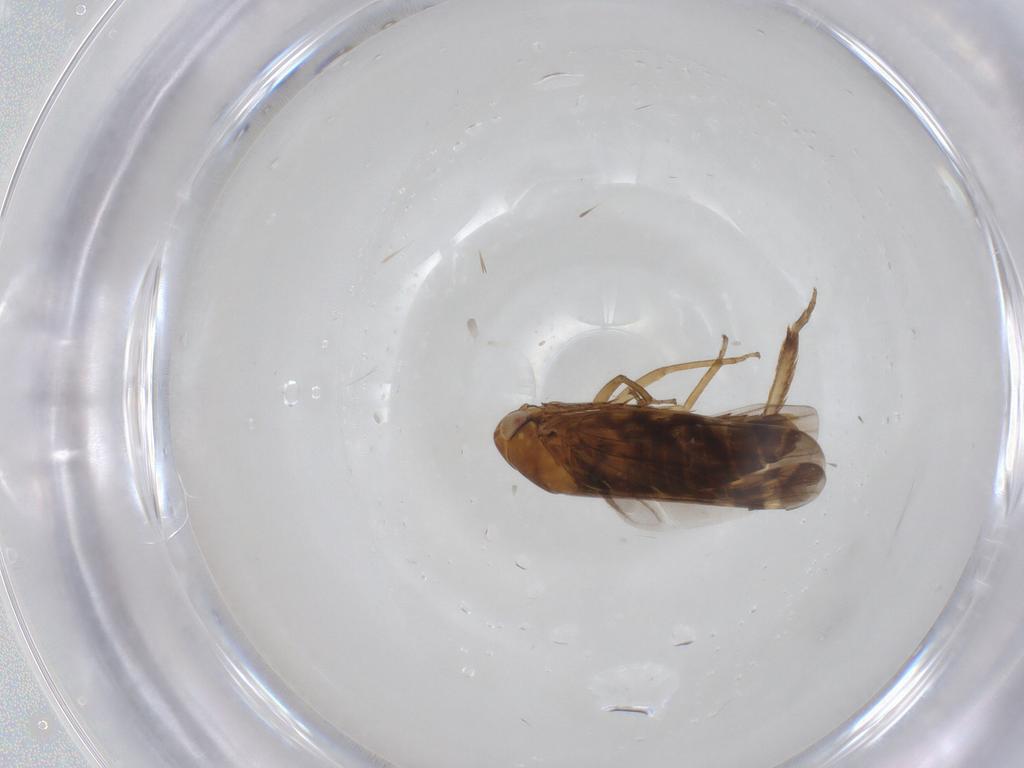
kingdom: Animalia
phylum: Arthropoda
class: Insecta
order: Hemiptera
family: Cicadellidae
